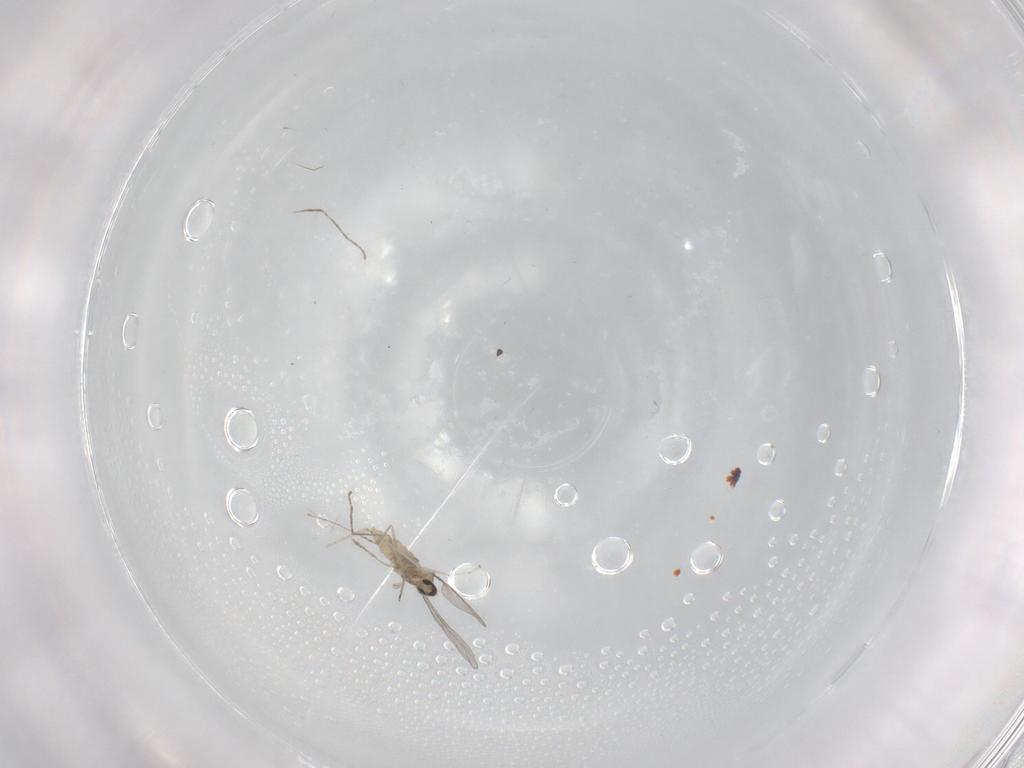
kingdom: Animalia
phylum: Arthropoda
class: Insecta
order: Diptera
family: Cecidomyiidae
